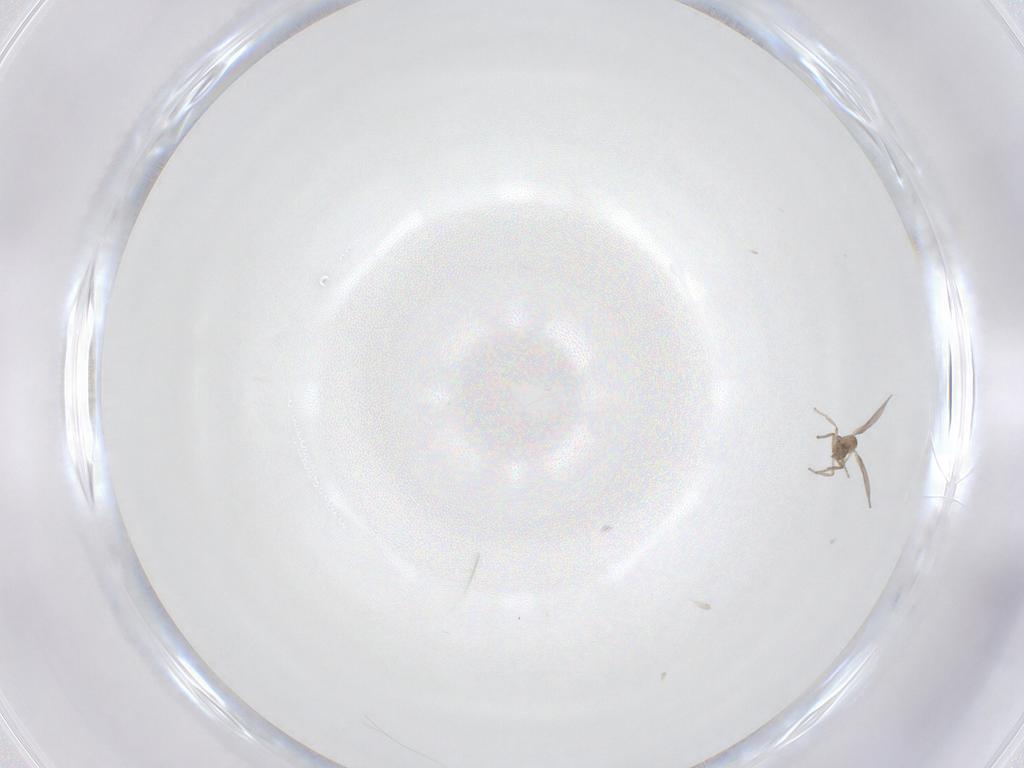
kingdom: Animalia
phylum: Arthropoda
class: Insecta
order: Diptera
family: Phoridae
